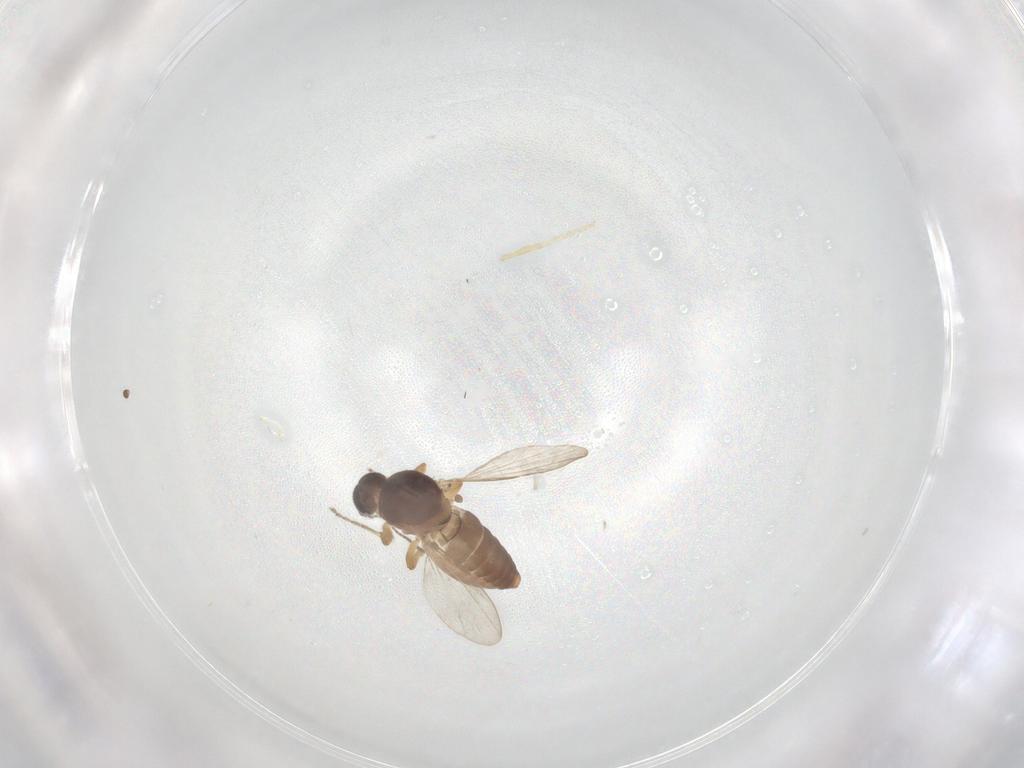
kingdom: Animalia
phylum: Arthropoda
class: Insecta
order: Diptera
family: Ceratopogonidae
